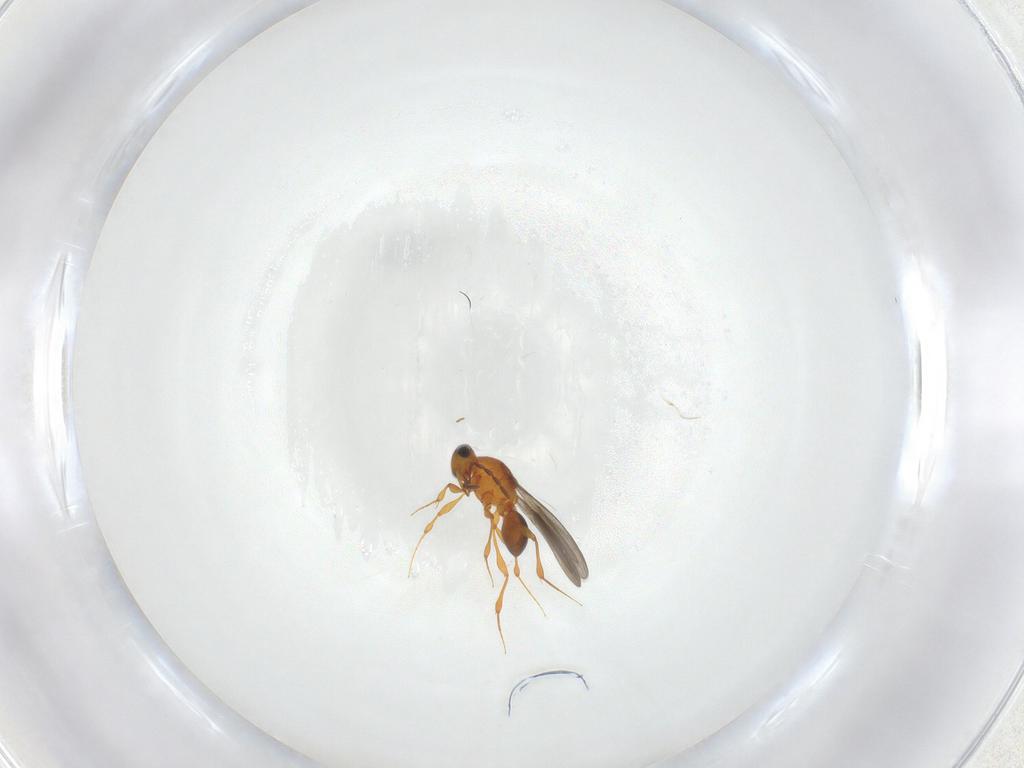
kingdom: Animalia
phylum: Arthropoda
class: Insecta
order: Hymenoptera
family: Platygastridae
